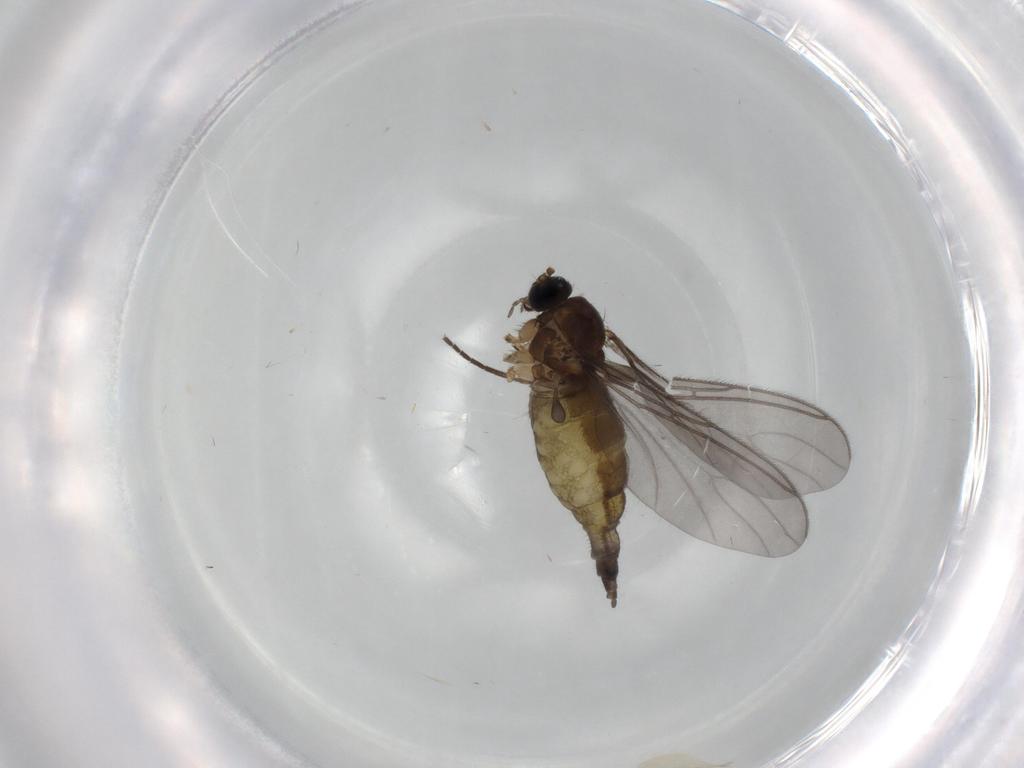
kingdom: Animalia
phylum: Arthropoda
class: Insecta
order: Diptera
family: Sciaridae
